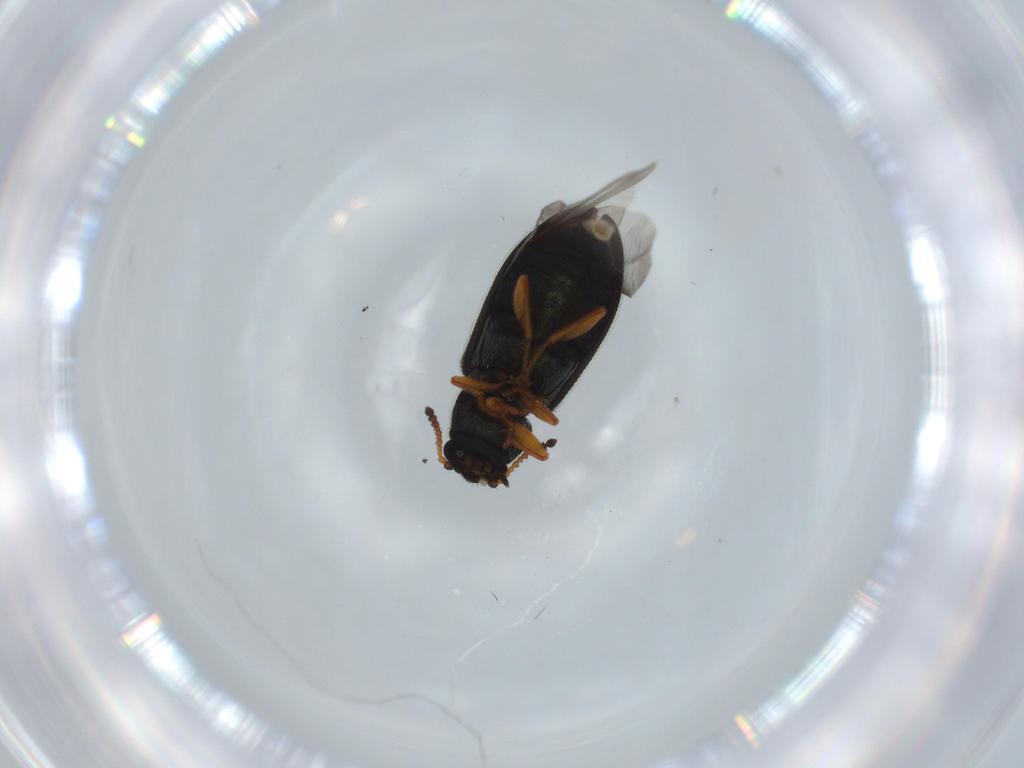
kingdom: Animalia
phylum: Arthropoda
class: Insecta
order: Coleoptera
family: Melyridae
